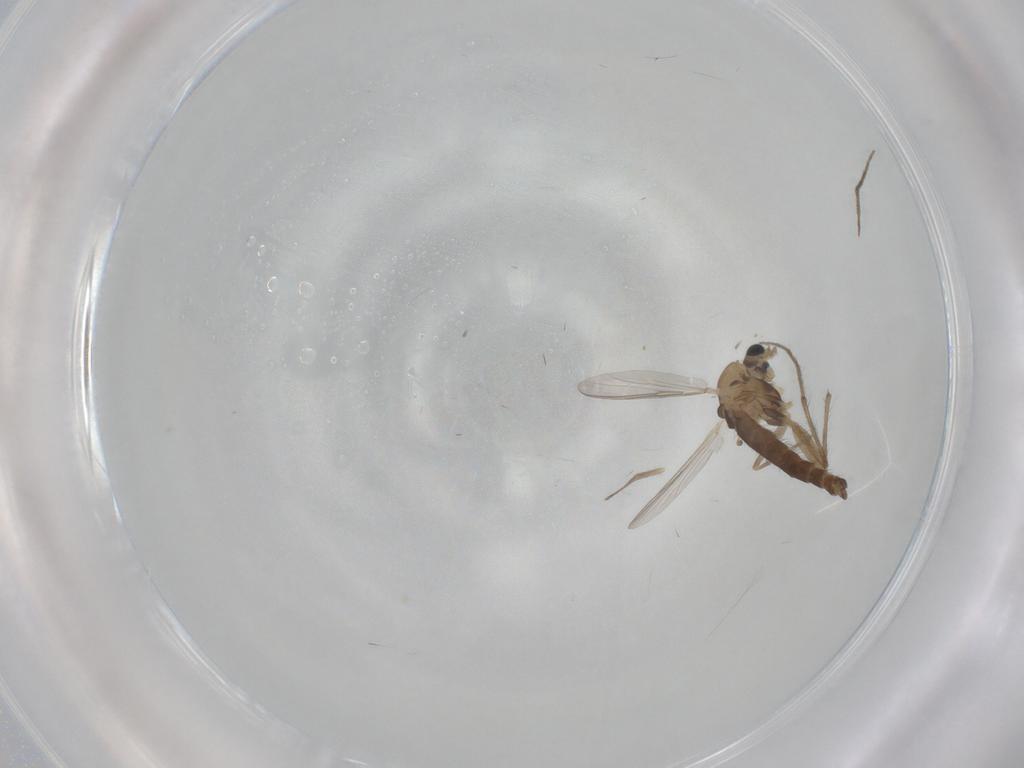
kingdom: Animalia
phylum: Arthropoda
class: Insecta
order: Diptera
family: Chironomidae
